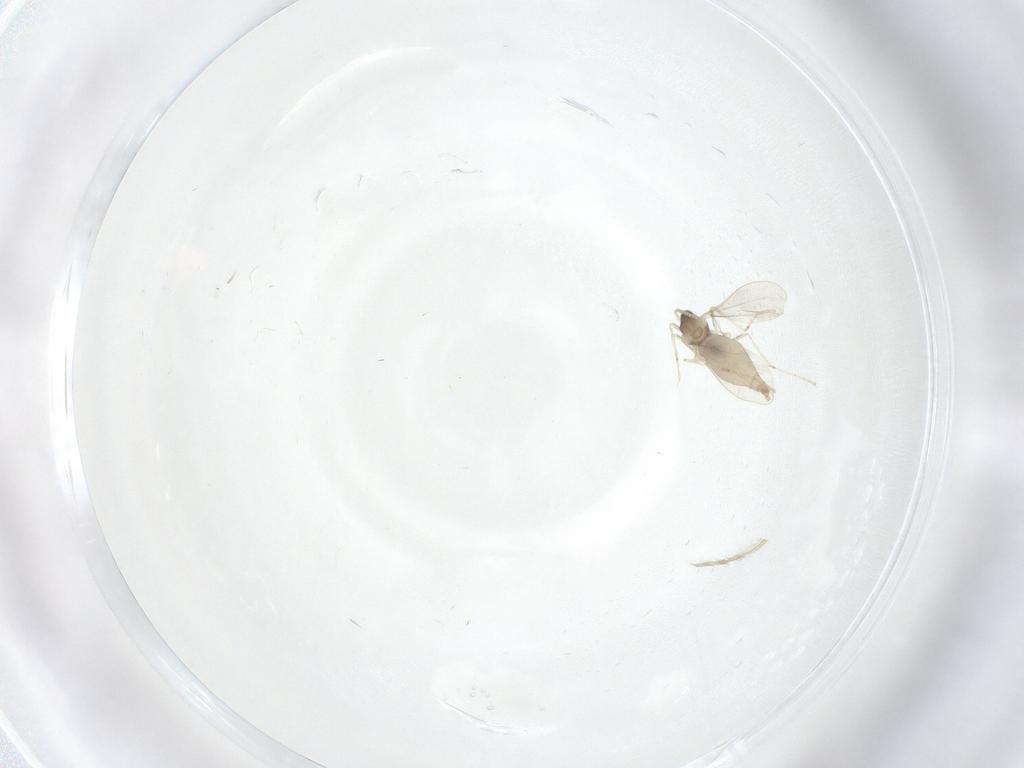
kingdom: Animalia
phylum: Arthropoda
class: Insecta
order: Diptera
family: Cecidomyiidae
